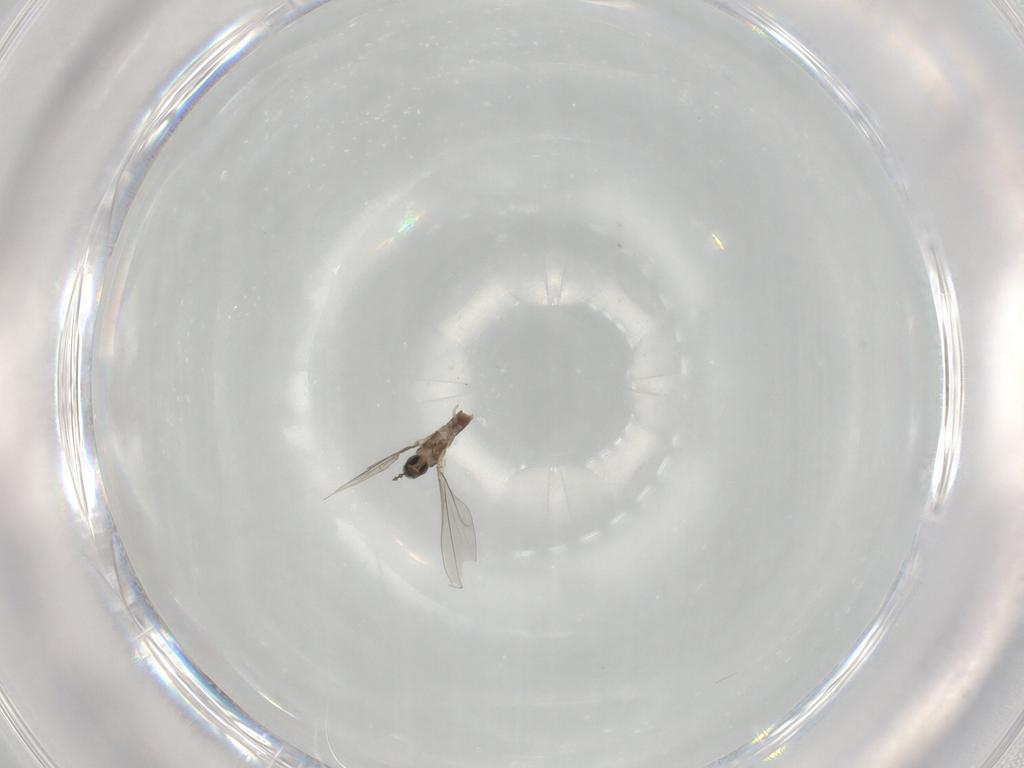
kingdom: Animalia
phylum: Arthropoda
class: Insecta
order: Diptera
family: Cecidomyiidae
